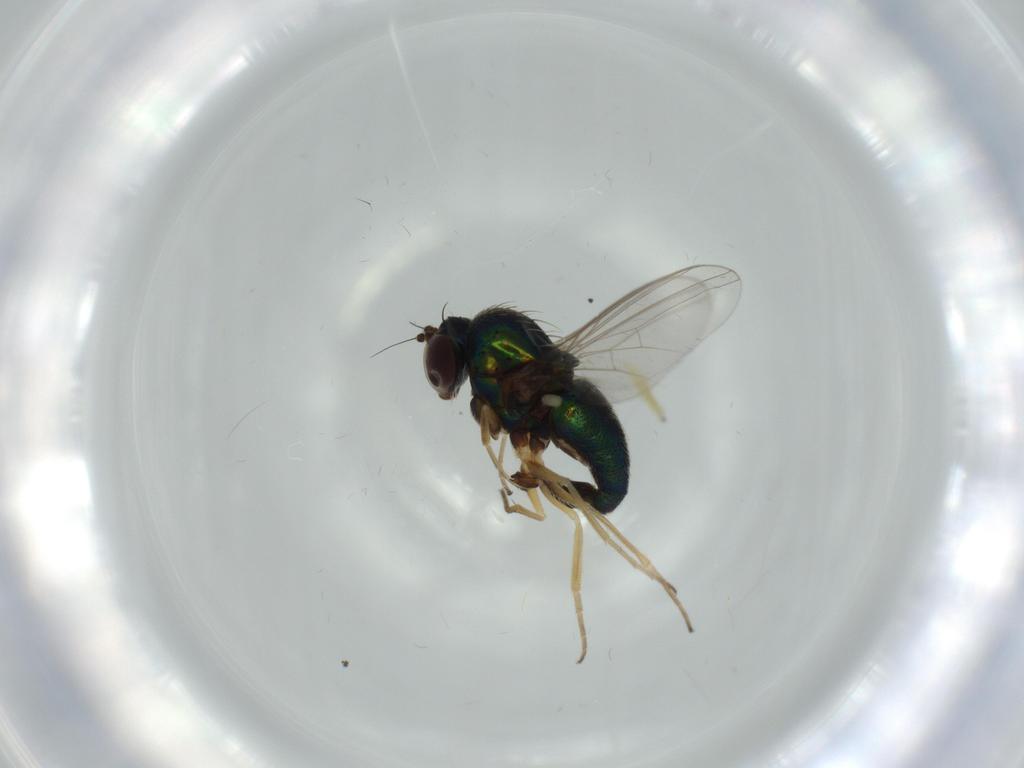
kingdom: Animalia
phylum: Arthropoda
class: Insecta
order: Diptera
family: Dolichopodidae
